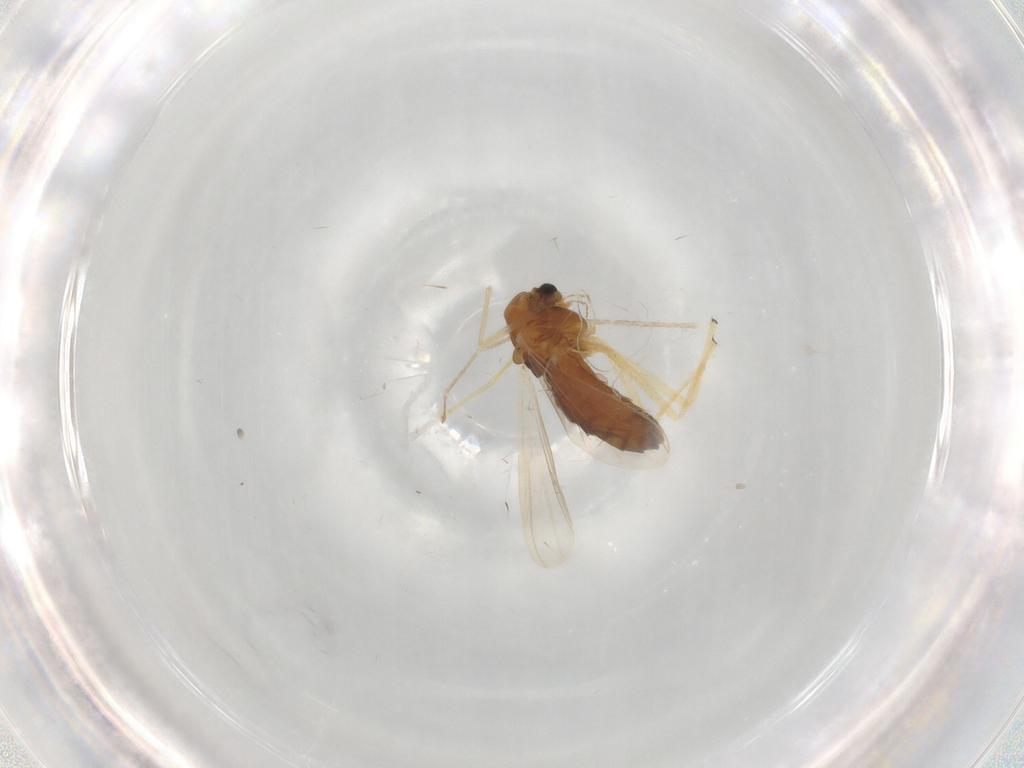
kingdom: Animalia
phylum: Arthropoda
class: Insecta
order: Diptera
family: Chironomidae
